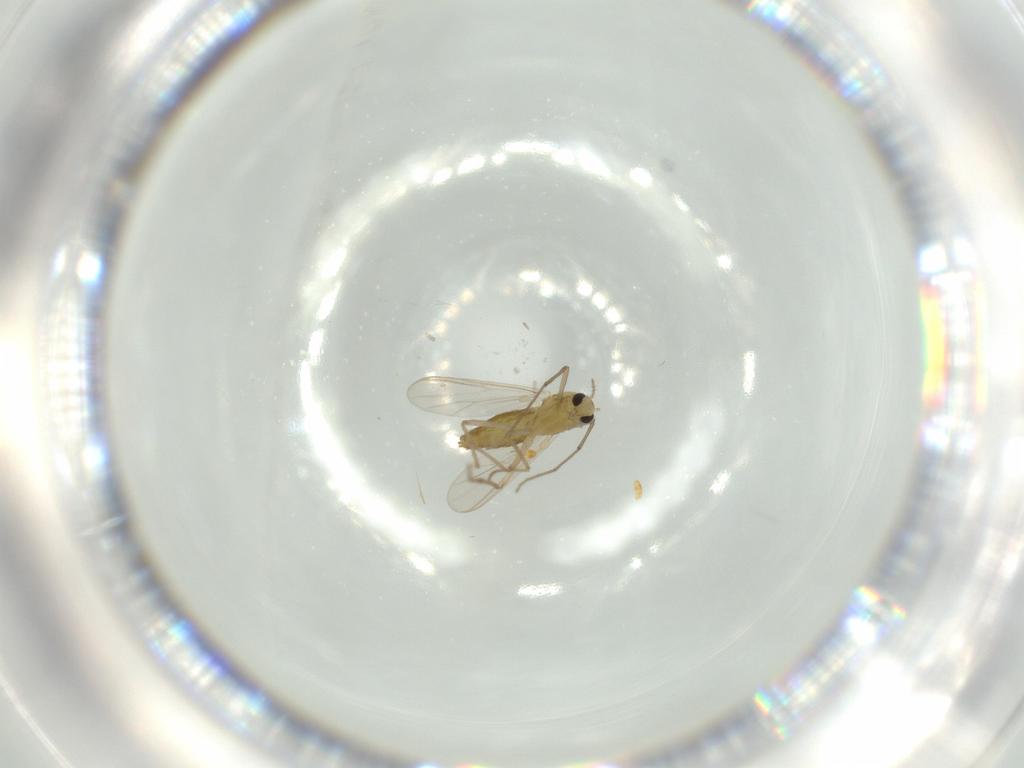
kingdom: Animalia
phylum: Arthropoda
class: Insecta
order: Diptera
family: Chironomidae
